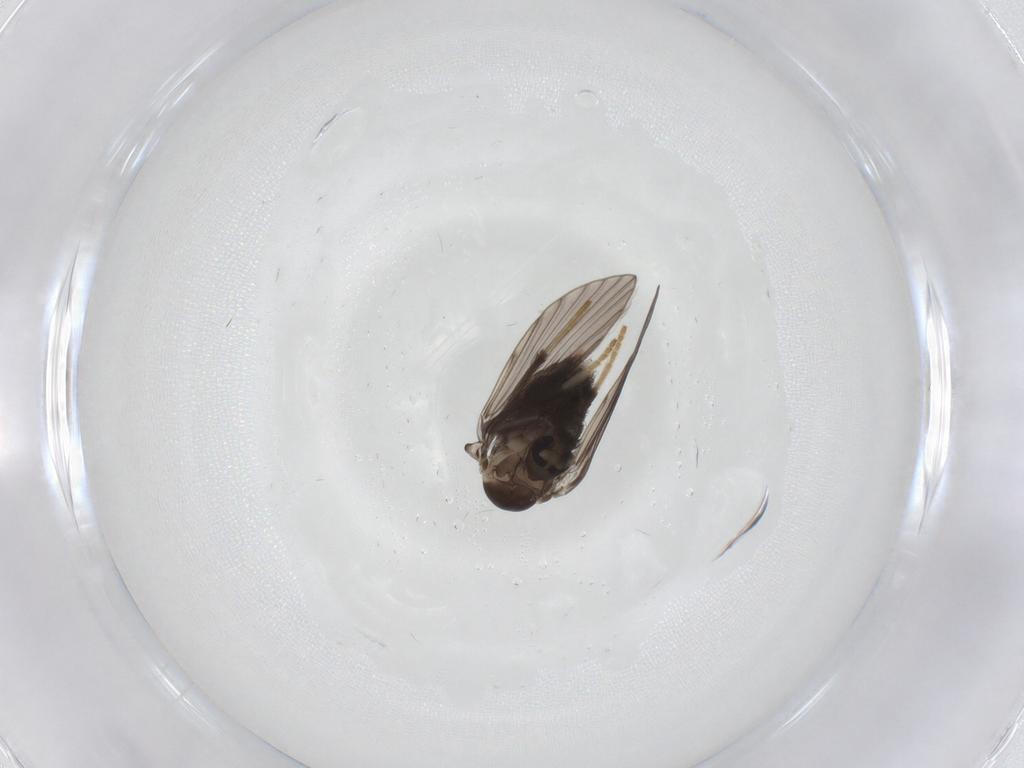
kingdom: Animalia
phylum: Arthropoda
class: Insecta
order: Diptera
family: Psychodidae
